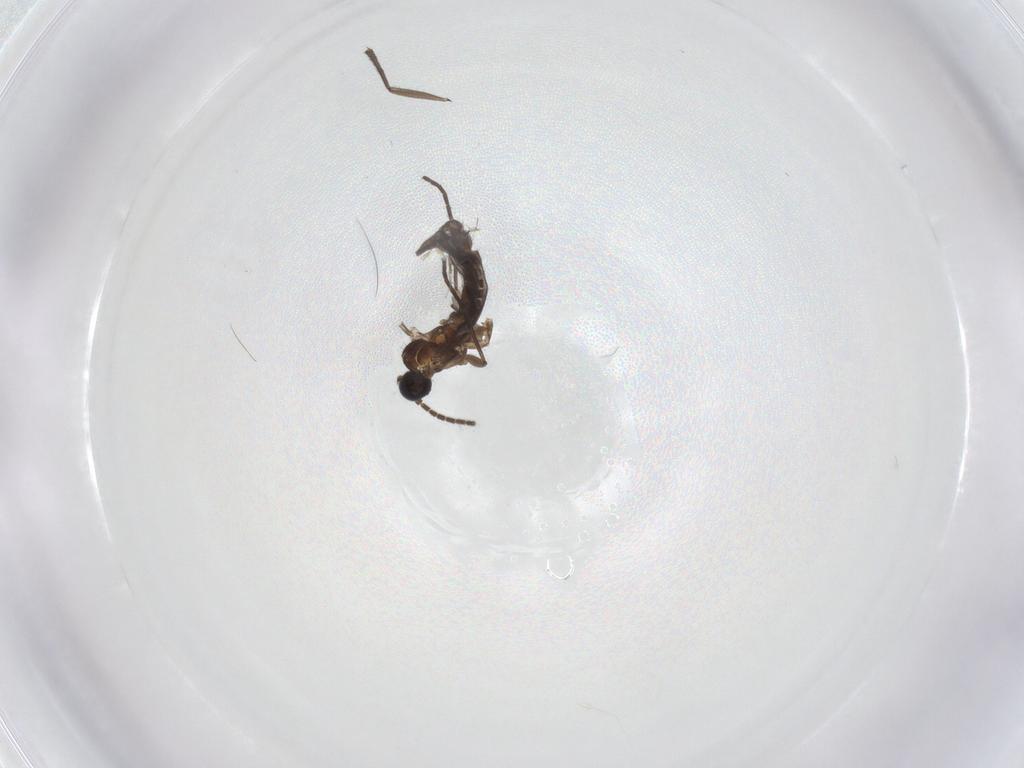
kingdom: Animalia
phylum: Arthropoda
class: Insecta
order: Diptera
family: Sciaridae
